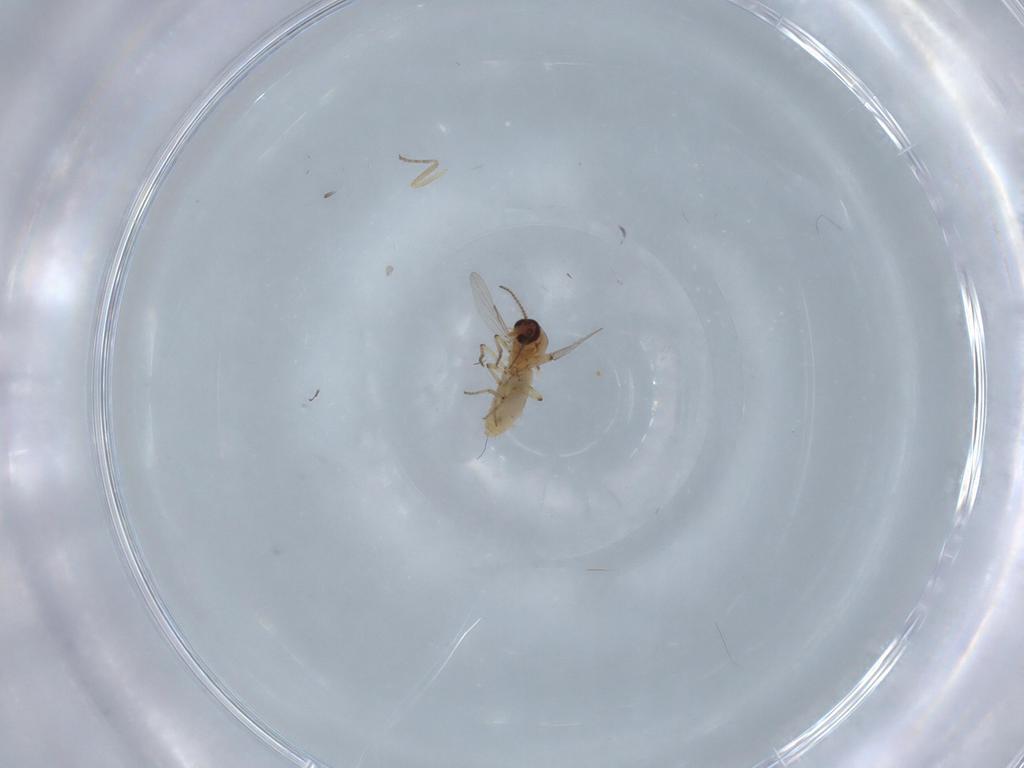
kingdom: Animalia
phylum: Arthropoda
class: Insecta
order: Diptera
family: Ceratopogonidae
